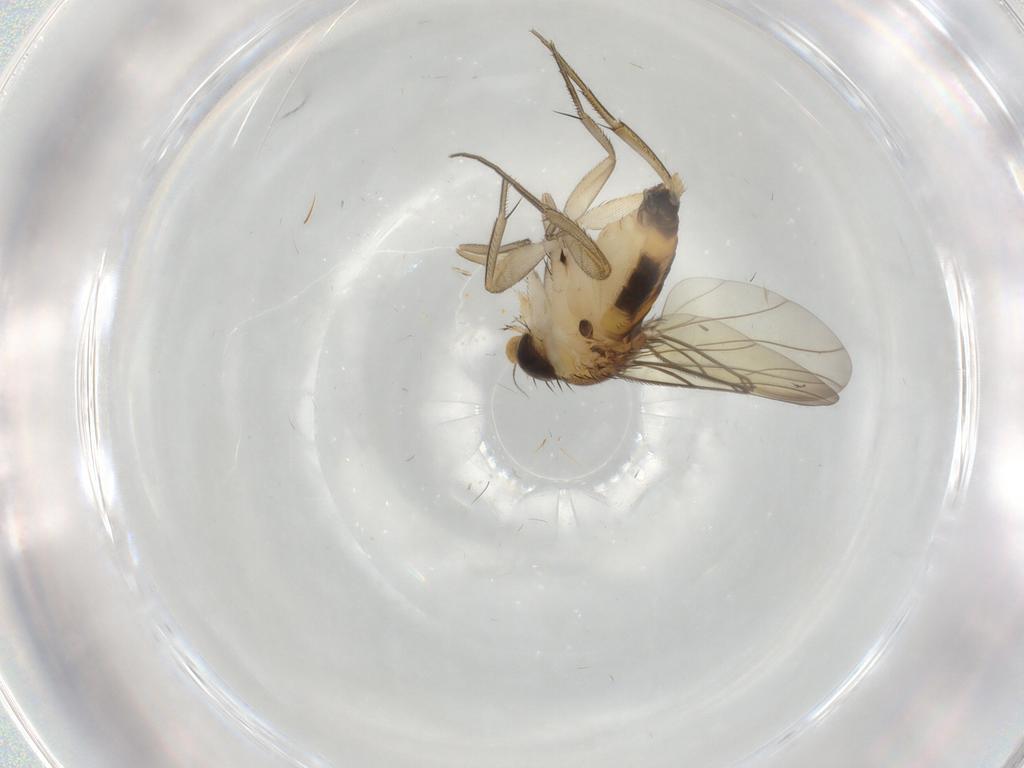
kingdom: Animalia
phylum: Arthropoda
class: Insecta
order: Diptera
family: Phoridae
